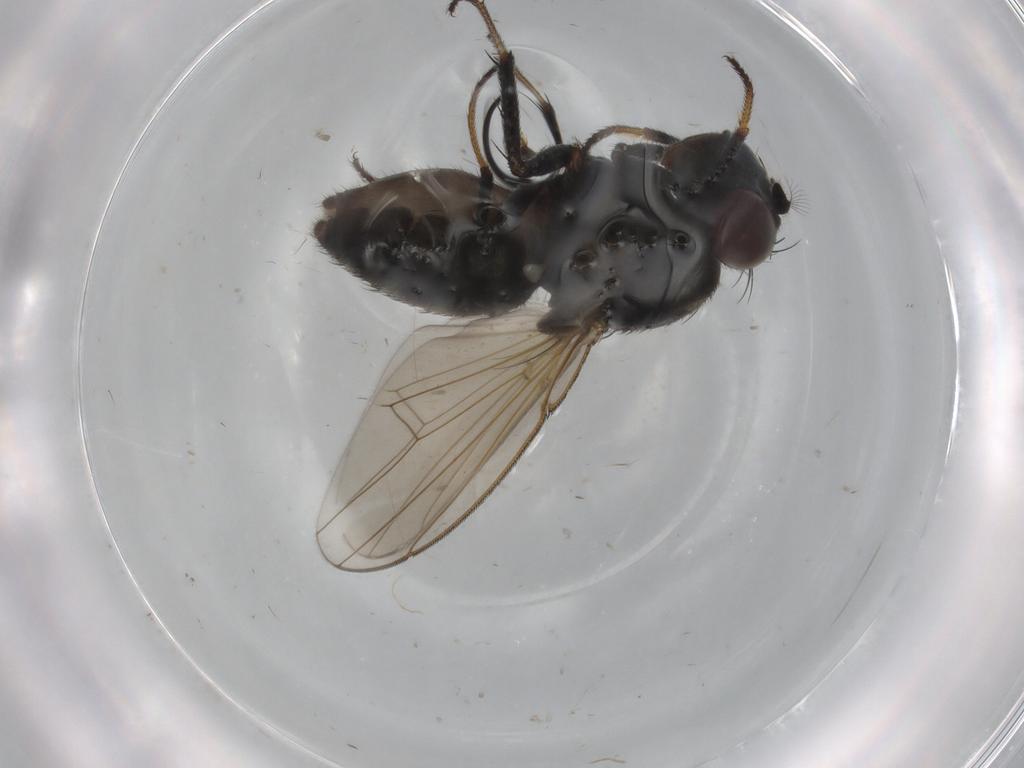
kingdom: Animalia
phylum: Arthropoda
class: Insecta
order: Diptera
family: Ephydridae
